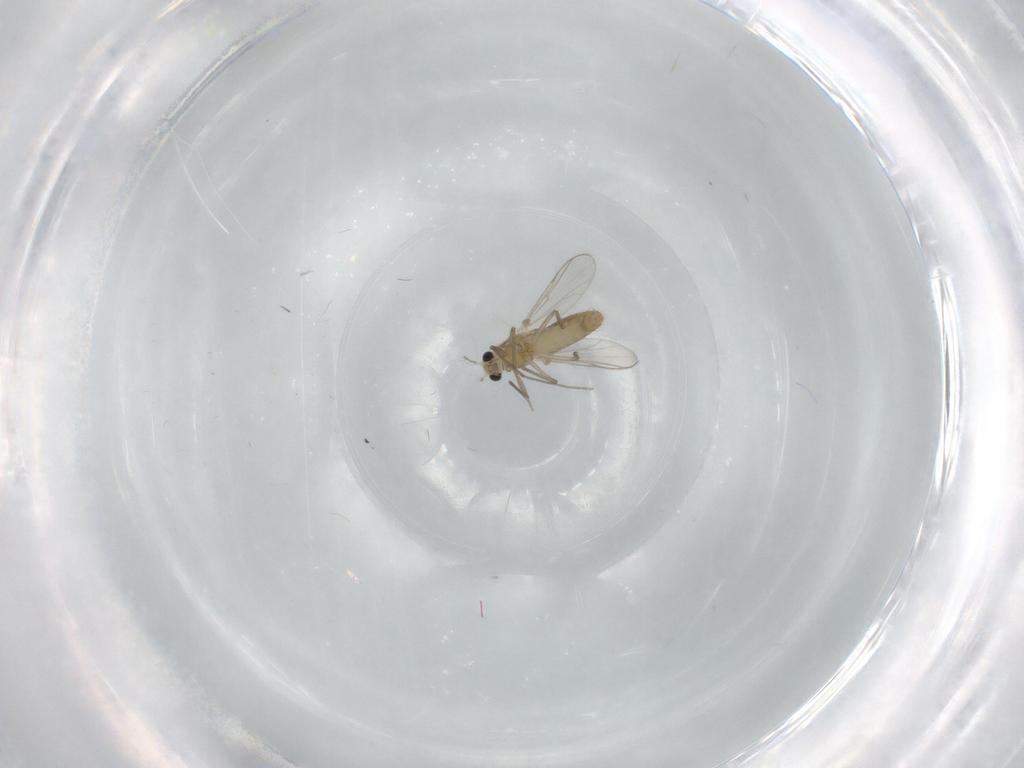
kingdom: Animalia
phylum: Arthropoda
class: Insecta
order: Diptera
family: Chironomidae
